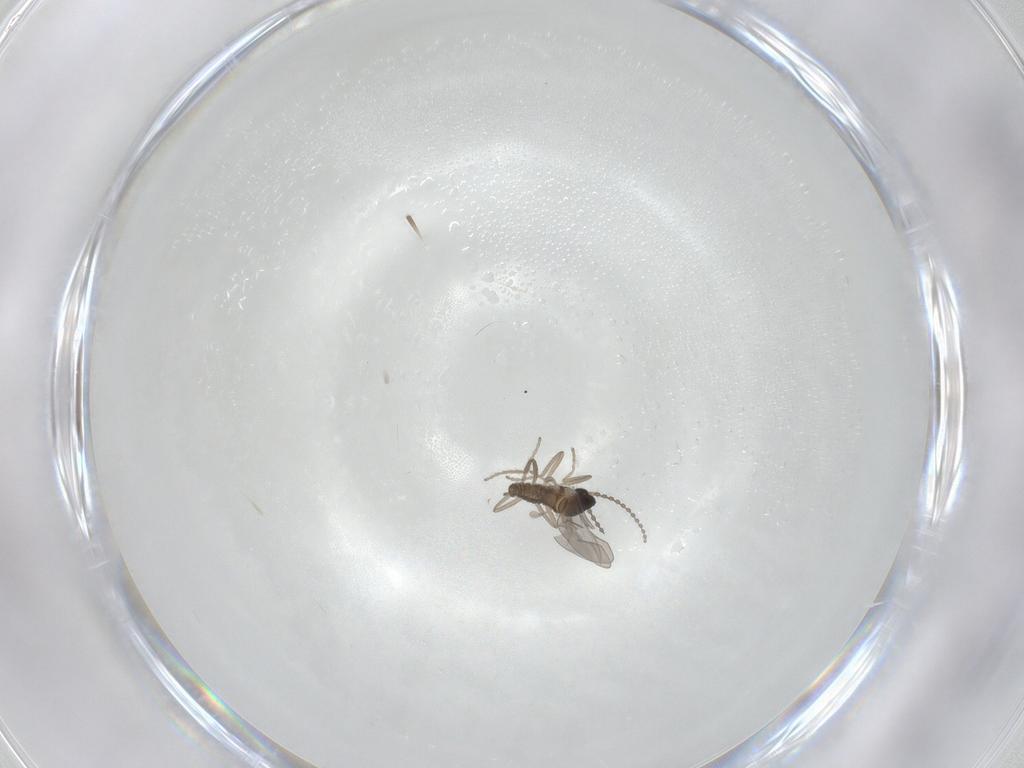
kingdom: Animalia
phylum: Arthropoda
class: Insecta
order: Diptera
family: Cecidomyiidae
